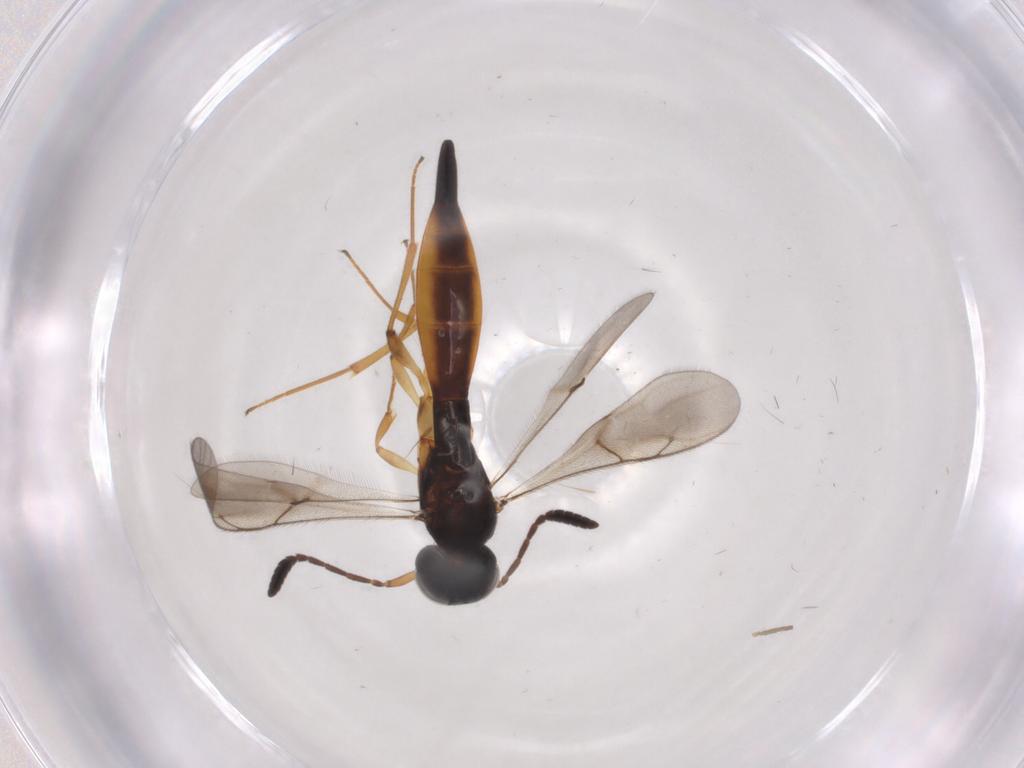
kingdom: Animalia
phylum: Arthropoda
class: Insecta
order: Hymenoptera
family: Scelionidae
